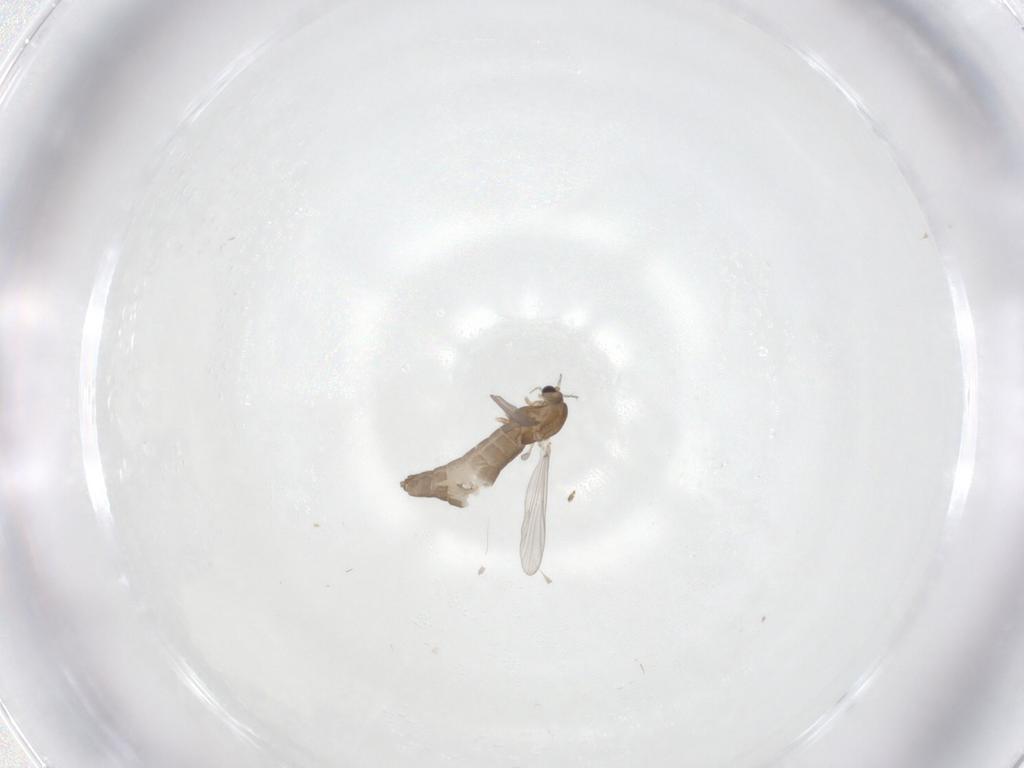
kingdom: Animalia
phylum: Arthropoda
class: Insecta
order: Diptera
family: Chironomidae
